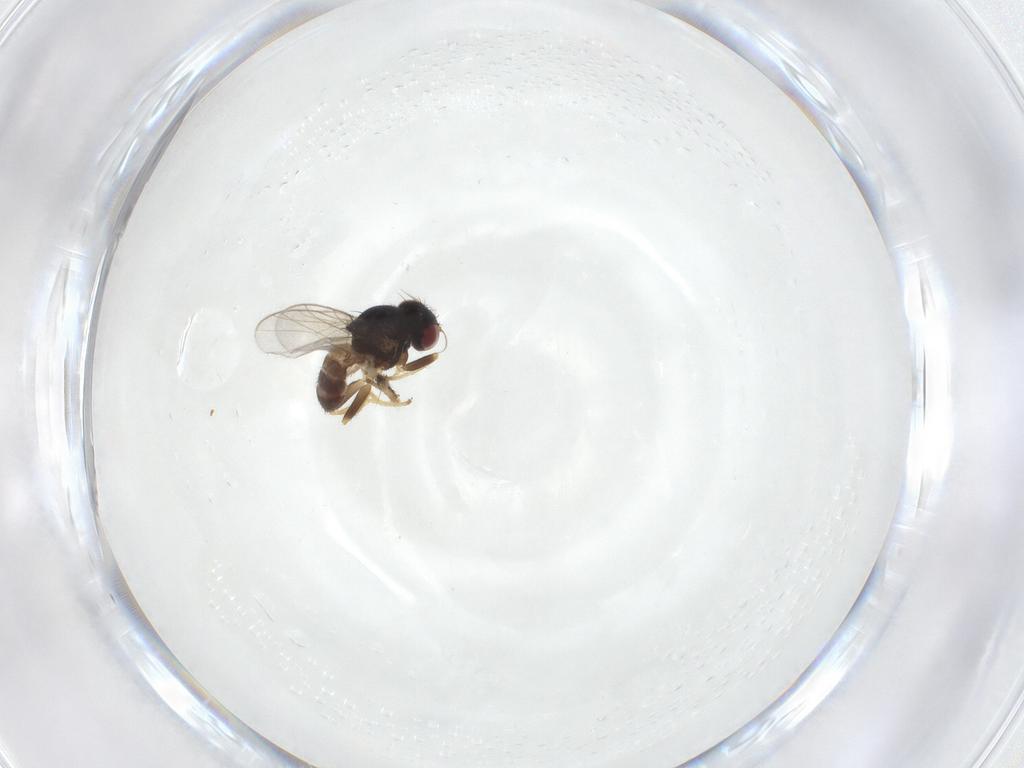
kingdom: Animalia
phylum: Arthropoda
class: Insecta
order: Diptera
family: Chloropidae
